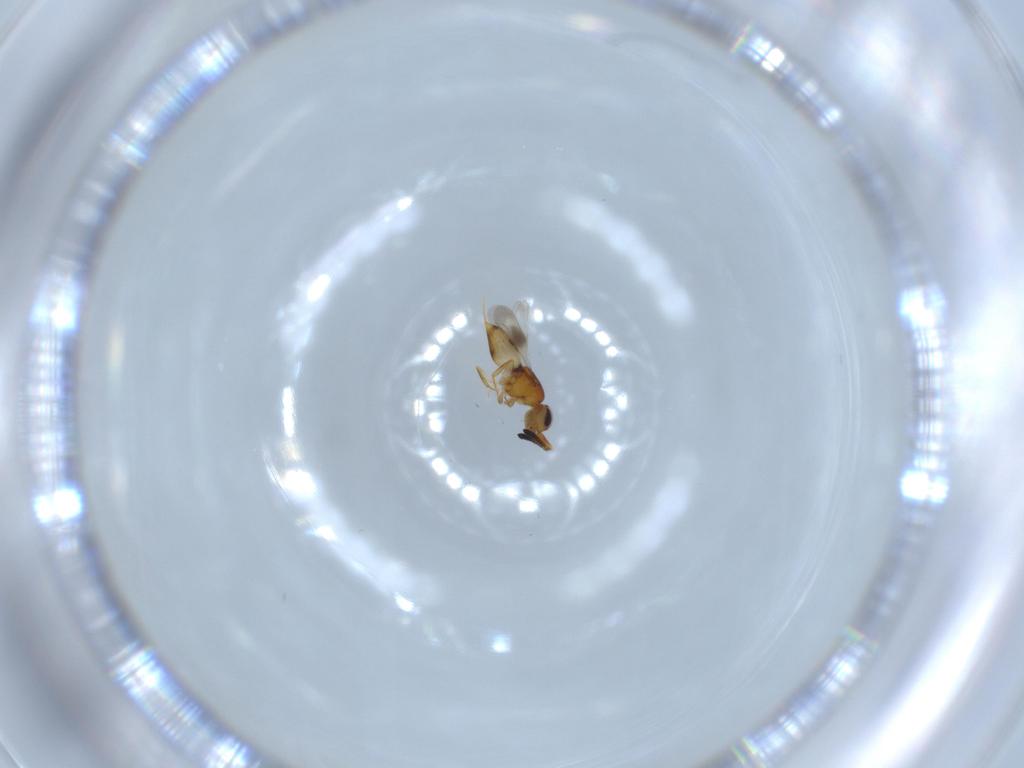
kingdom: Animalia
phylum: Arthropoda
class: Insecta
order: Hymenoptera
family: Ceraphronidae
